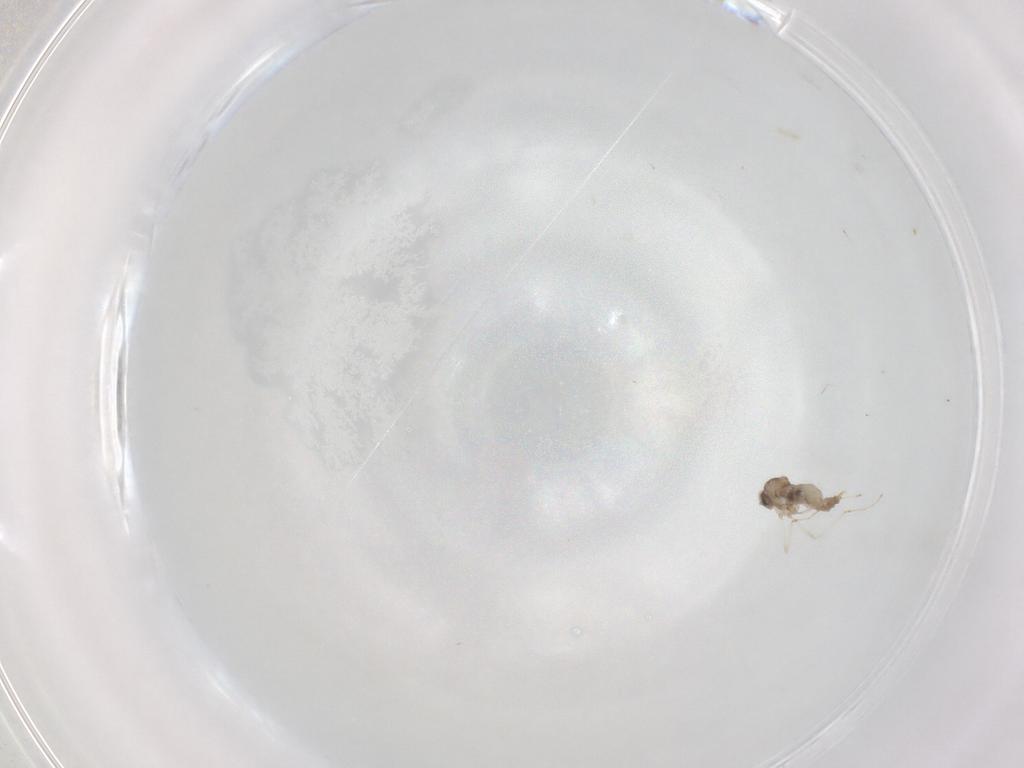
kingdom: Animalia
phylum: Arthropoda
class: Insecta
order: Diptera
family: Cecidomyiidae
